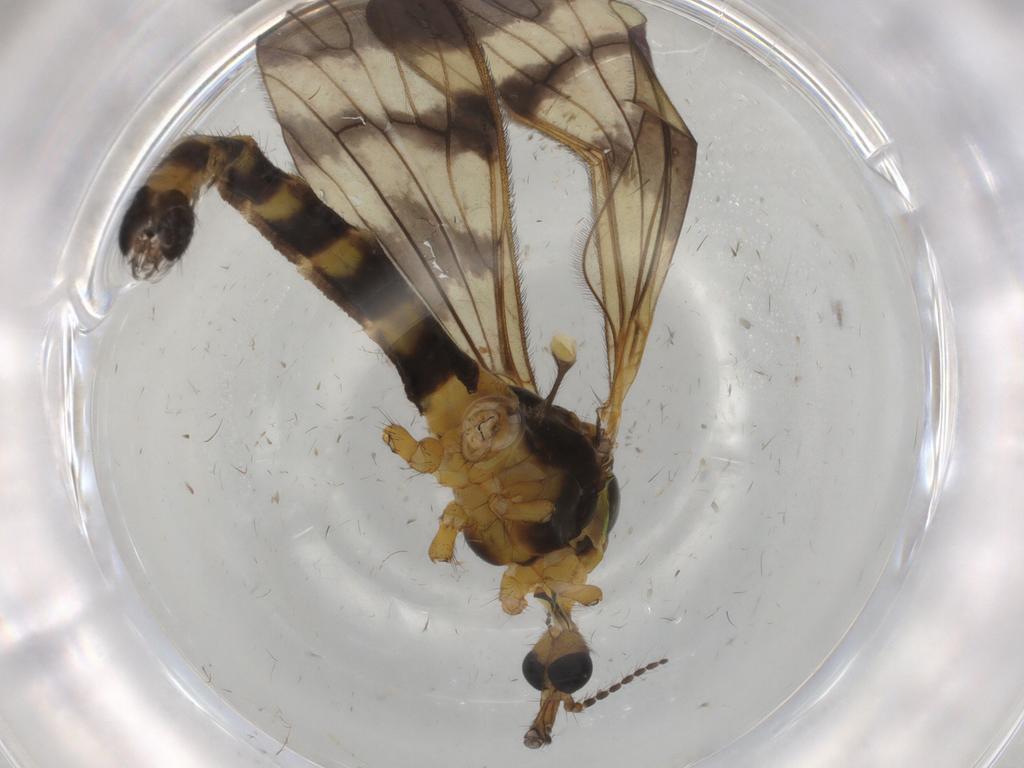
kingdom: Animalia
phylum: Arthropoda
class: Insecta
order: Diptera
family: Limoniidae
